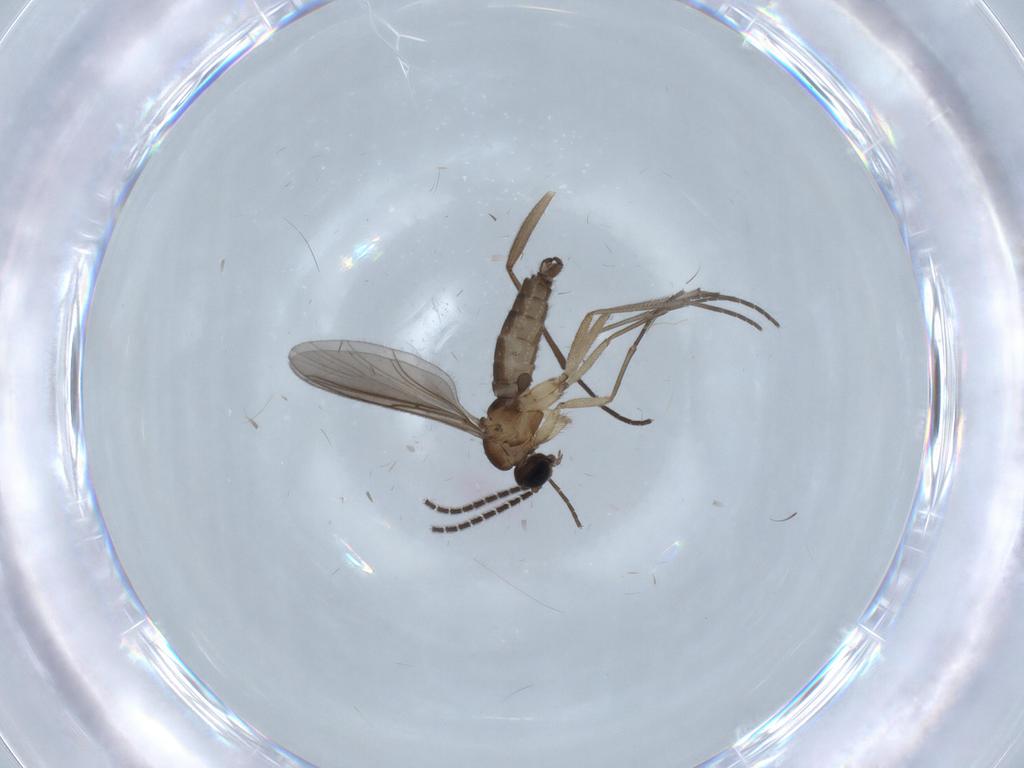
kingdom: Animalia
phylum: Arthropoda
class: Insecta
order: Diptera
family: Sciaridae
